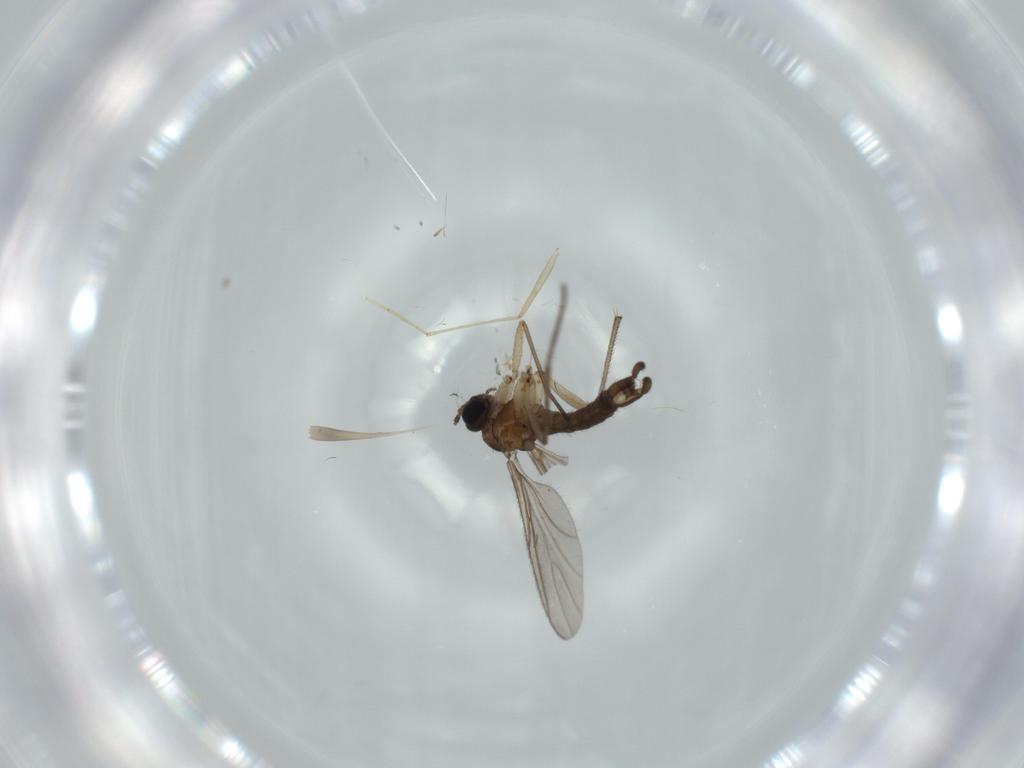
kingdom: Animalia
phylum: Arthropoda
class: Insecta
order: Diptera
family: Sciaridae
